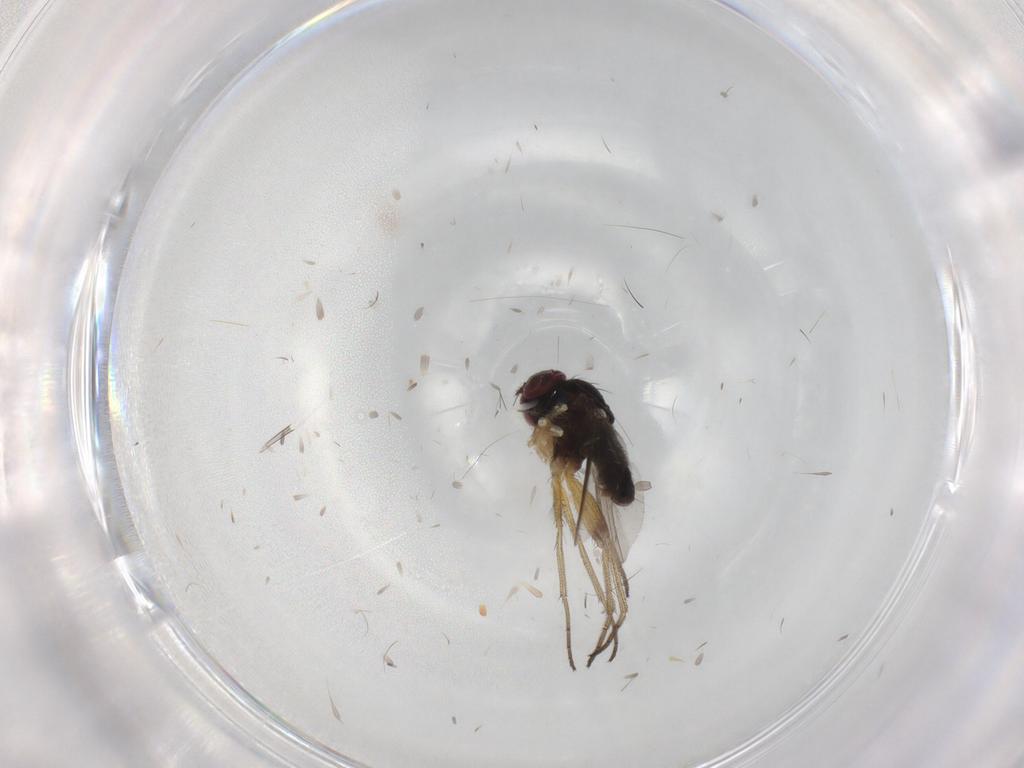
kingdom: Animalia
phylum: Arthropoda
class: Insecta
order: Diptera
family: Dolichopodidae
